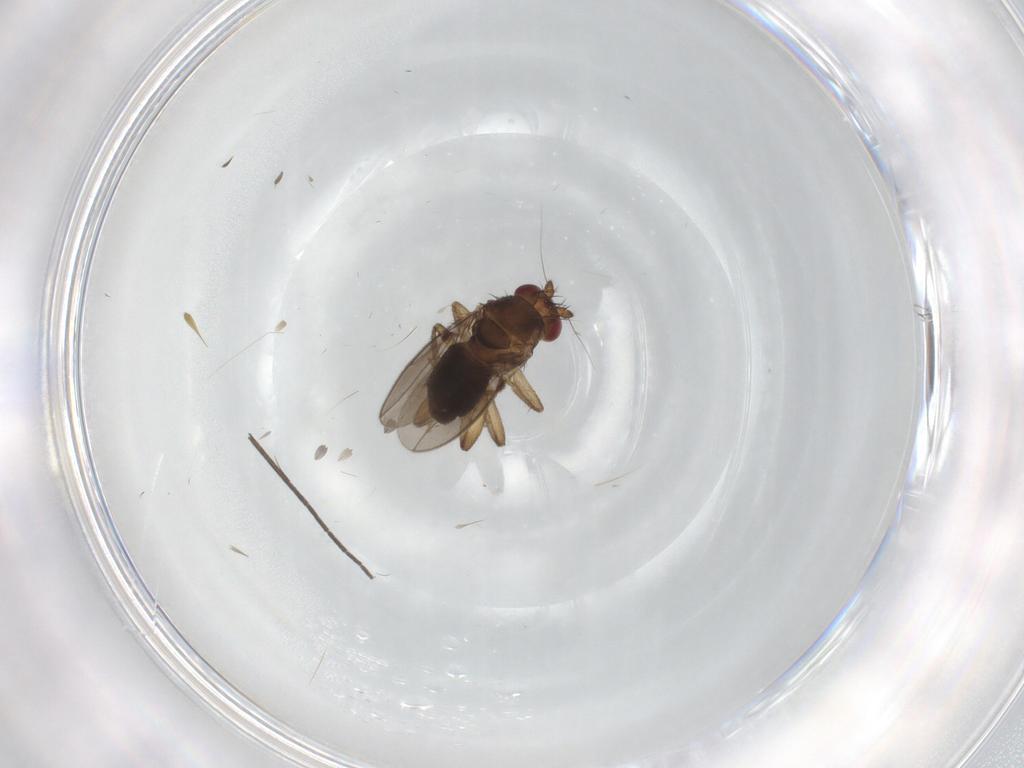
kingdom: Animalia
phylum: Arthropoda
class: Insecta
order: Diptera
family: Sphaeroceridae
